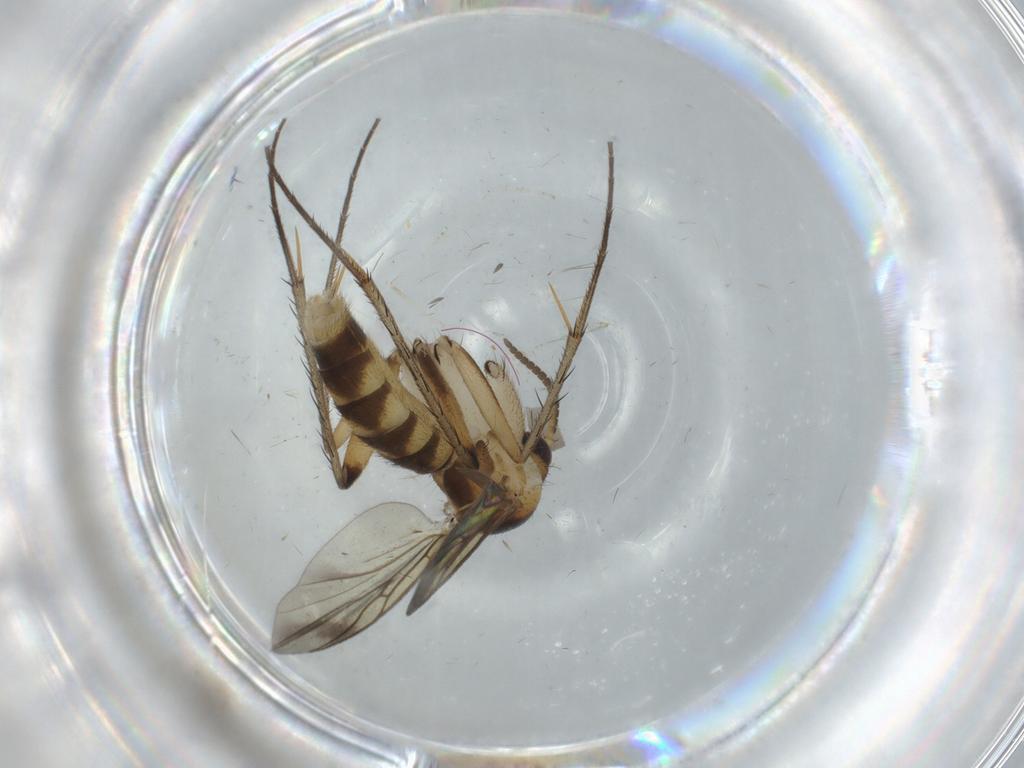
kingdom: Animalia
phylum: Arthropoda
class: Insecta
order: Diptera
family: Mycetophilidae
